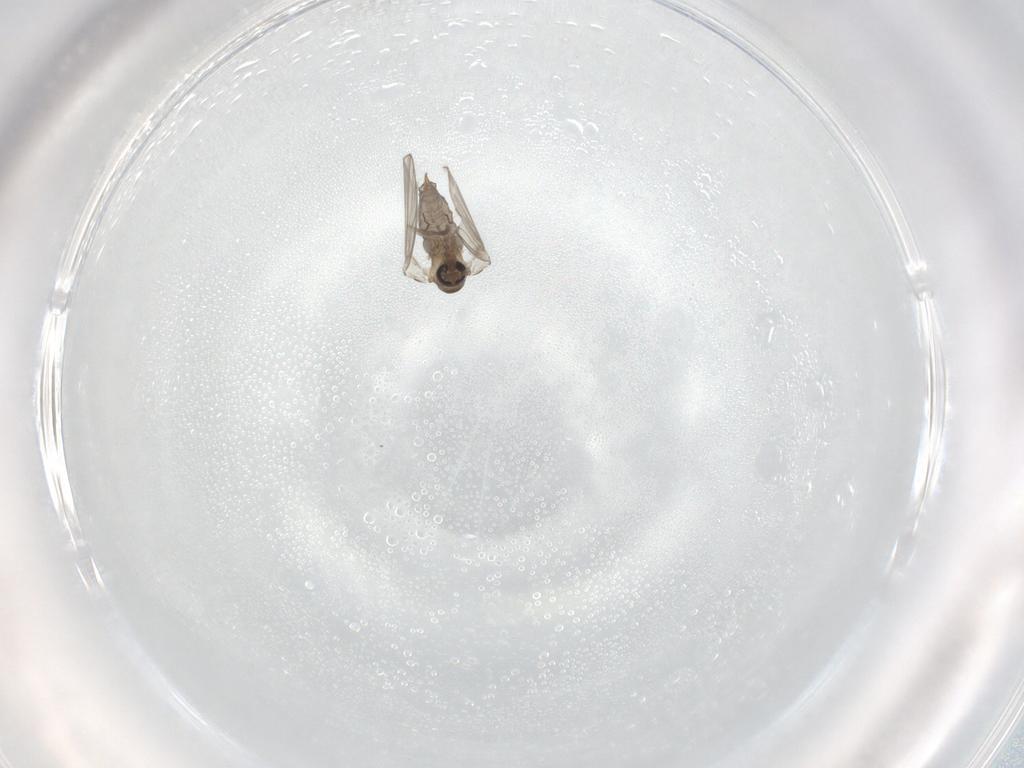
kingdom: Animalia
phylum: Arthropoda
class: Insecta
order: Diptera
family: Psychodidae
